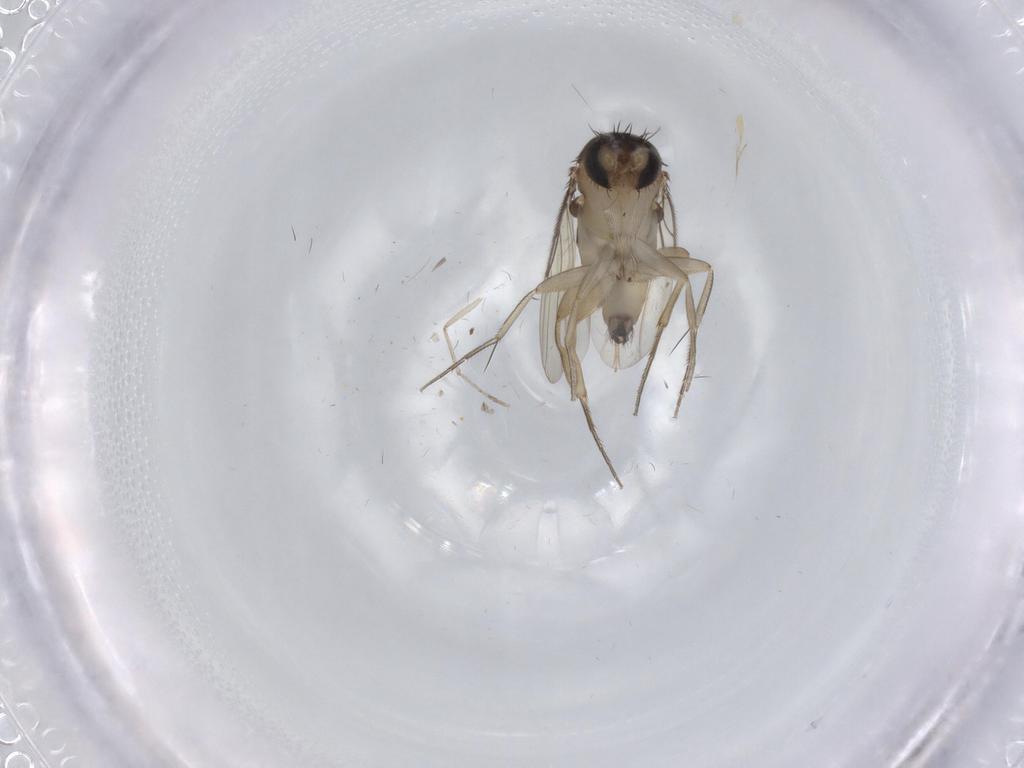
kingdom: Animalia
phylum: Arthropoda
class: Insecta
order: Diptera
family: Phoridae
